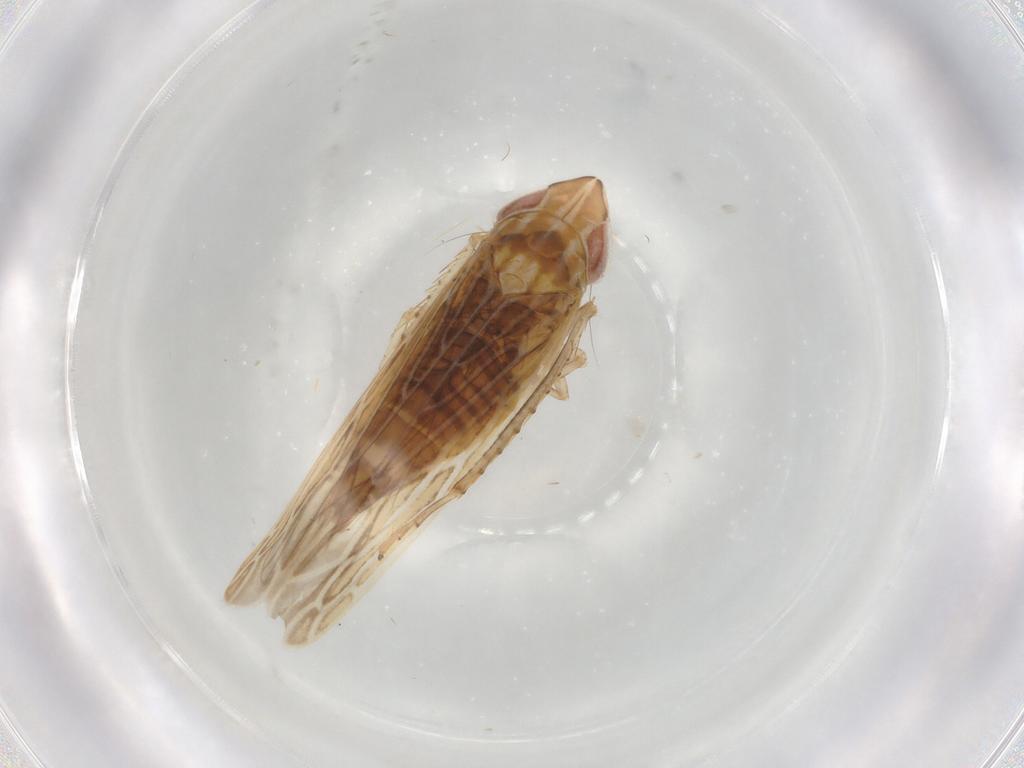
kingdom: Animalia
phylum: Arthropoda
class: Insecta
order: Hemiptera
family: Cicadellidae
